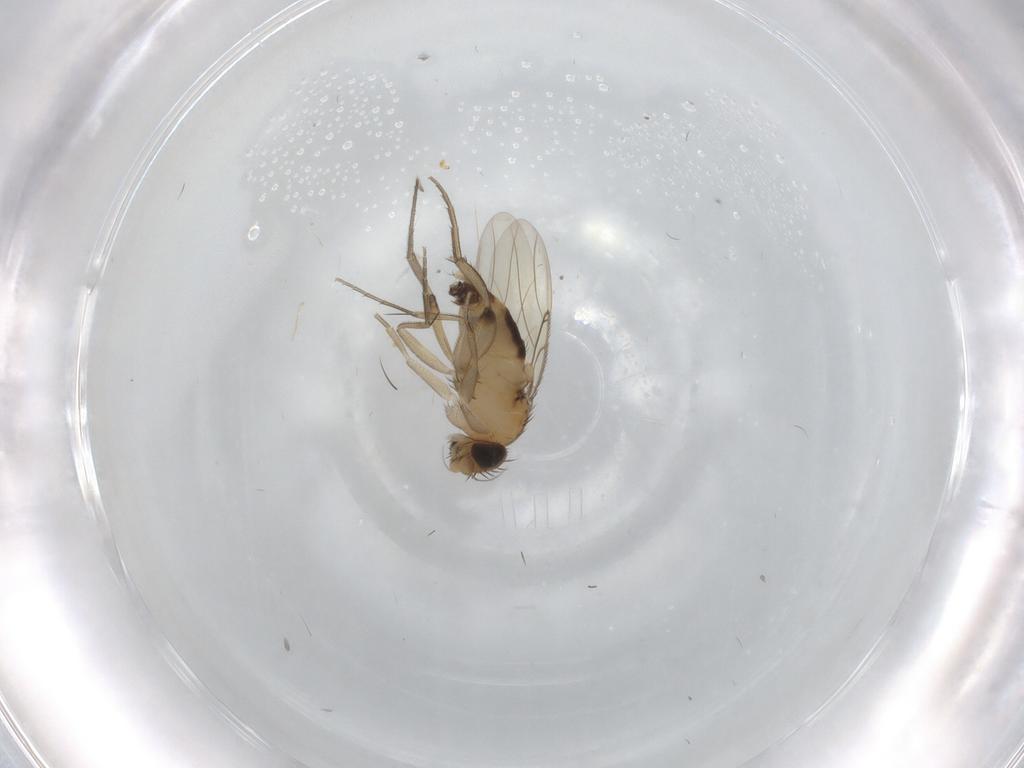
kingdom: Animalia
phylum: Arthropoda
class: Insecta
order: Diptera
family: Phoridae
